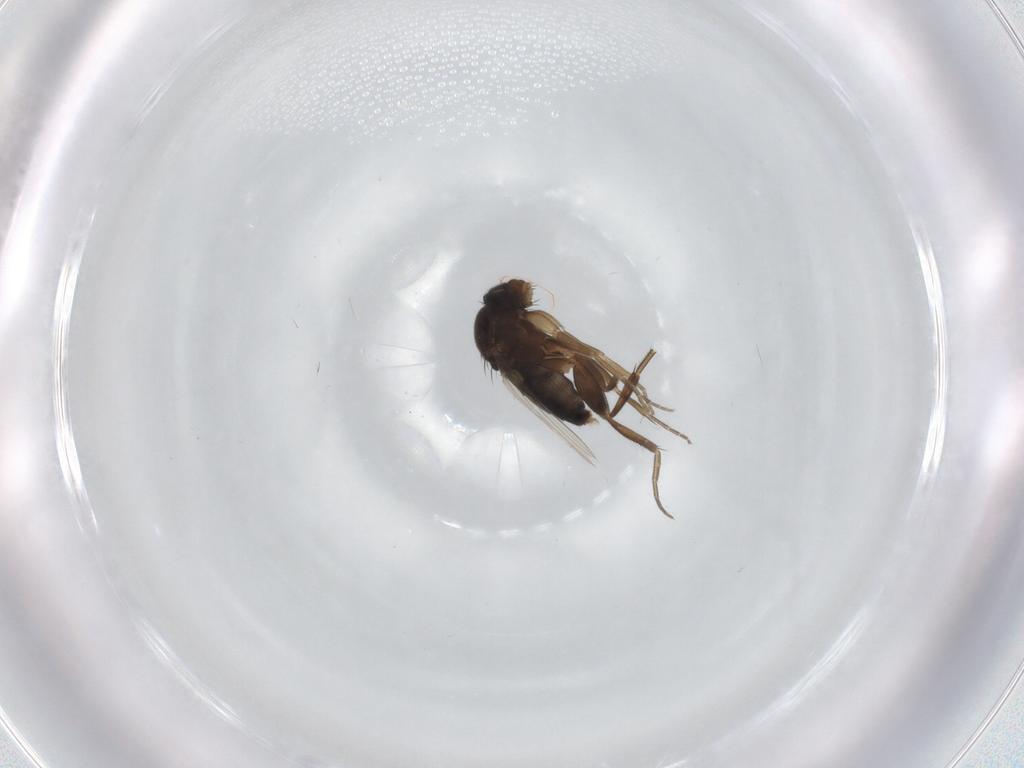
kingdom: Animalia
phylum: Arthropoda
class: Insecta
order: Diptera
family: Phoridae
